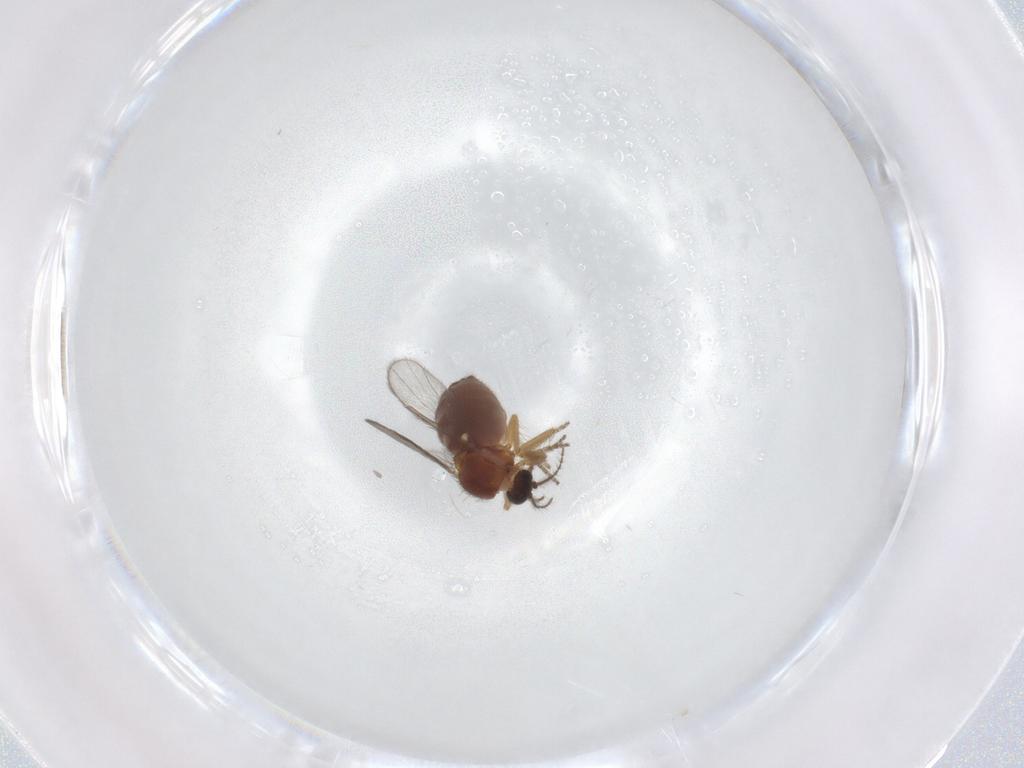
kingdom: Animalia
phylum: Arthropoda
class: Insecta
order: Diptera
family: Ceratopogonidae
